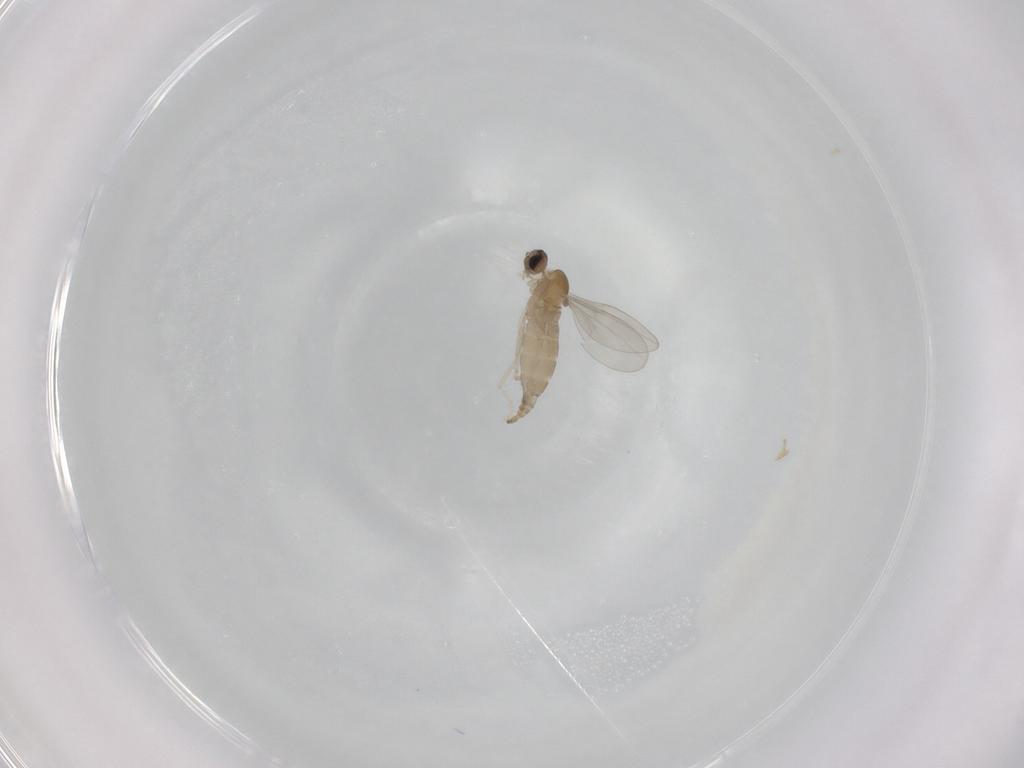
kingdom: Animalia
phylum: Arthropoda
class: Insecta
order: Diptera
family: Cecidomyiidae
